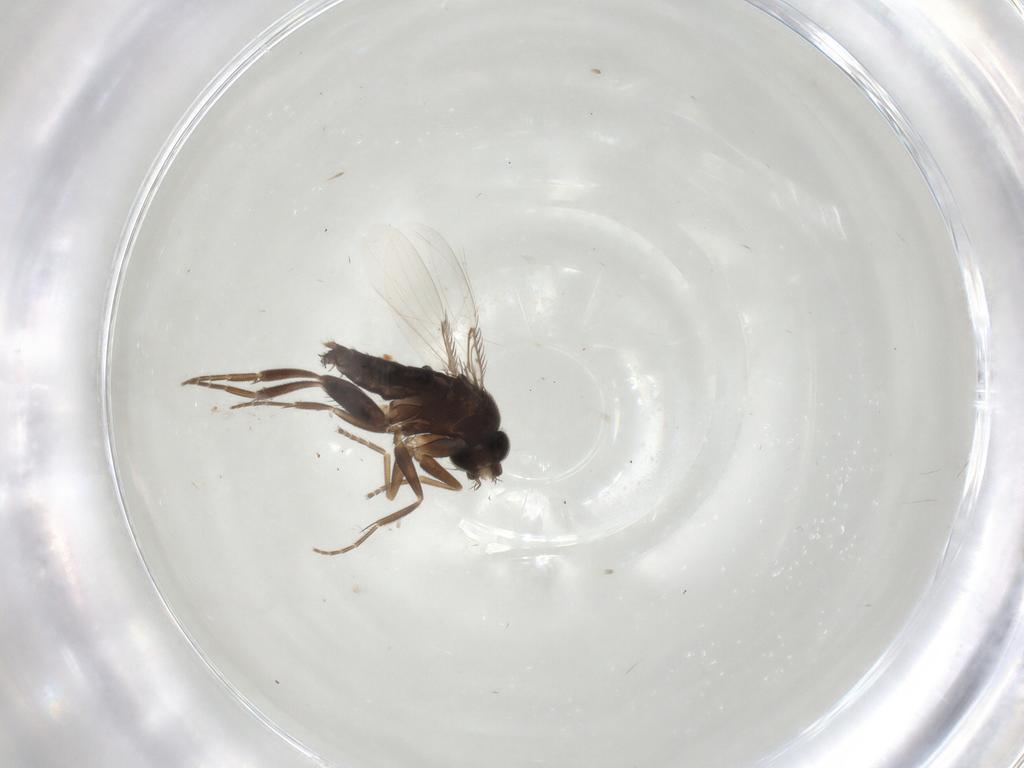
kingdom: Animalia
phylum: Arthropoda
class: Insecta
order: Diptera
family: Phoridae
